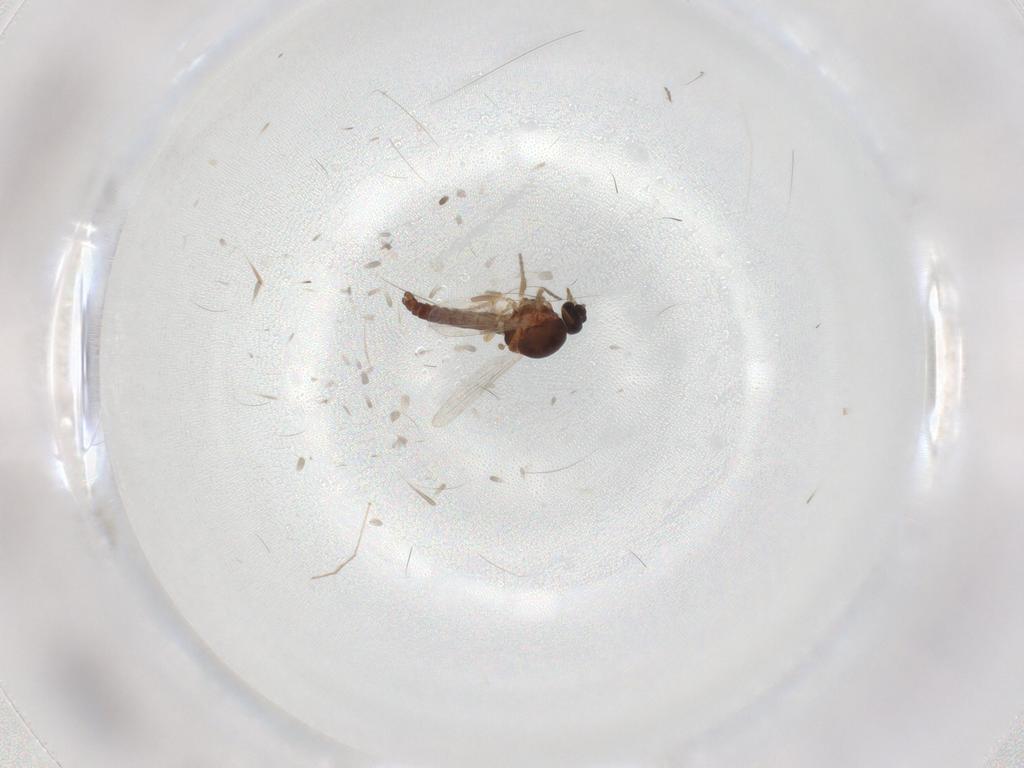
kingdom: Animalia
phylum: Arthropoda
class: Insecta
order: Diptera
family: Ceratopogonidae
